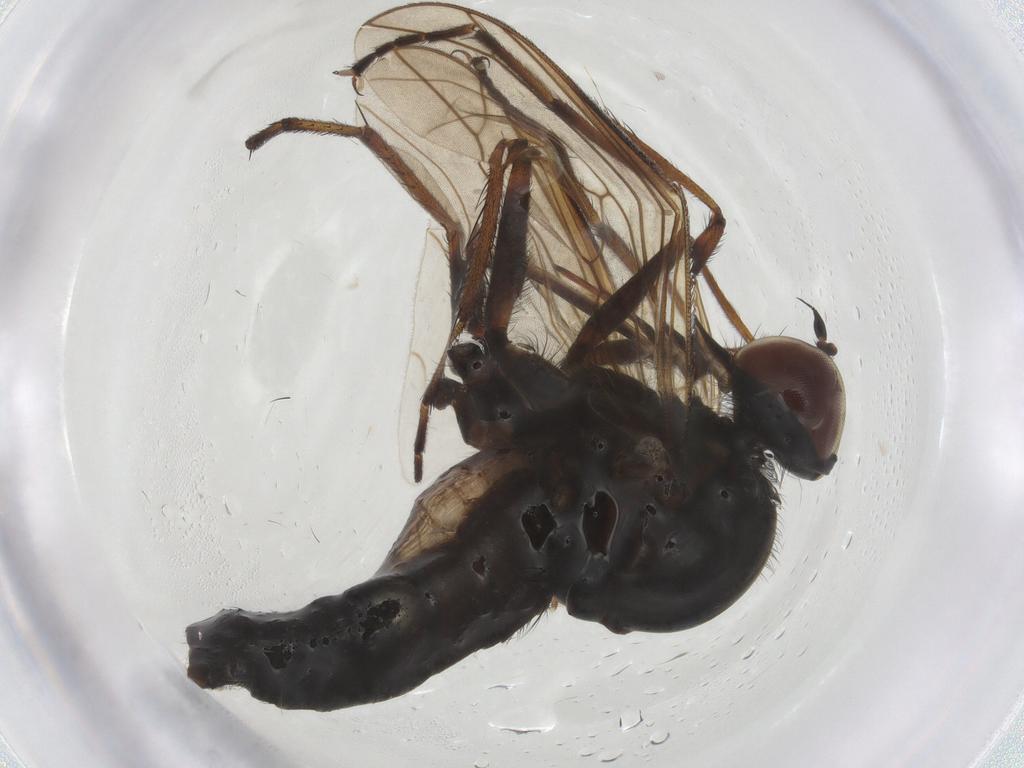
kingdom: Animalia
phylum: Arthropoda
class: Insecta
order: Diptera
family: Empididae
